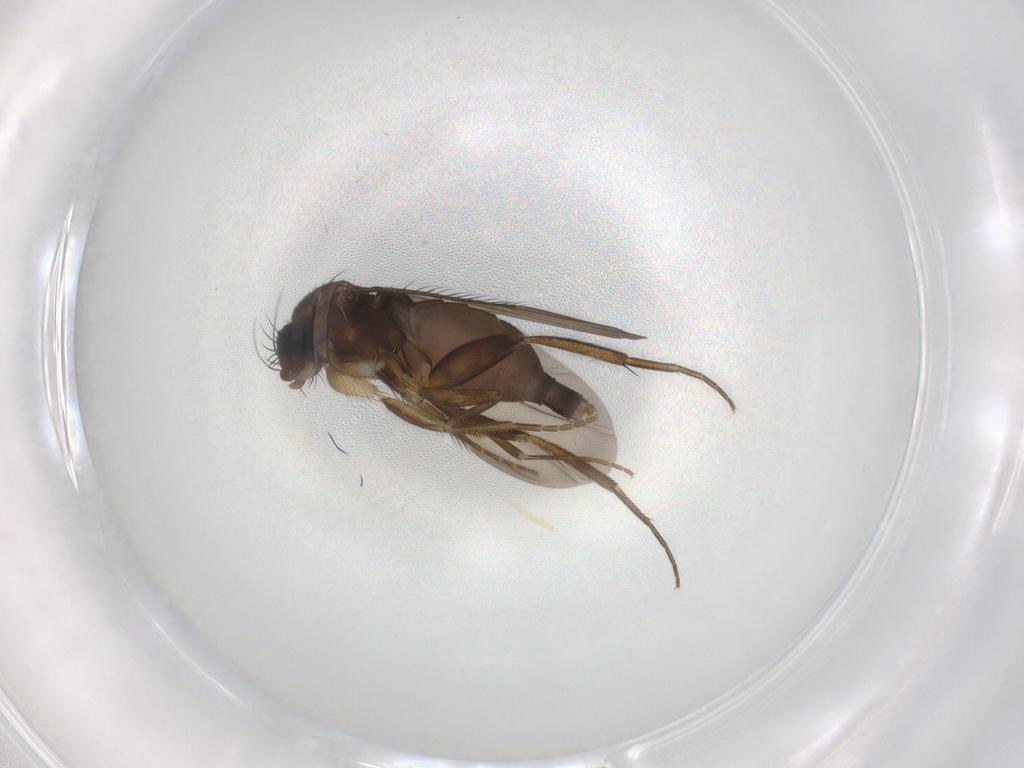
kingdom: Animalia
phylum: Arthropoda
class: Insecta
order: Diptera
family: Phoridae
